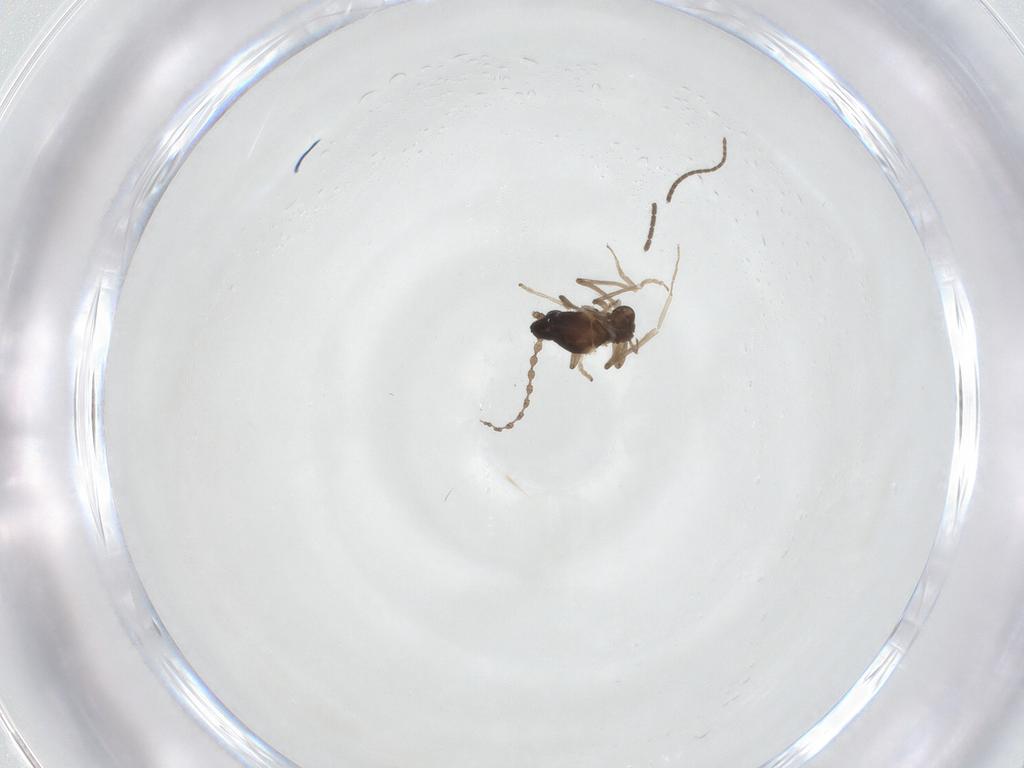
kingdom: Animalia
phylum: Arthropoda
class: Insecta
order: Diptera
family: Cecidomyiidae
